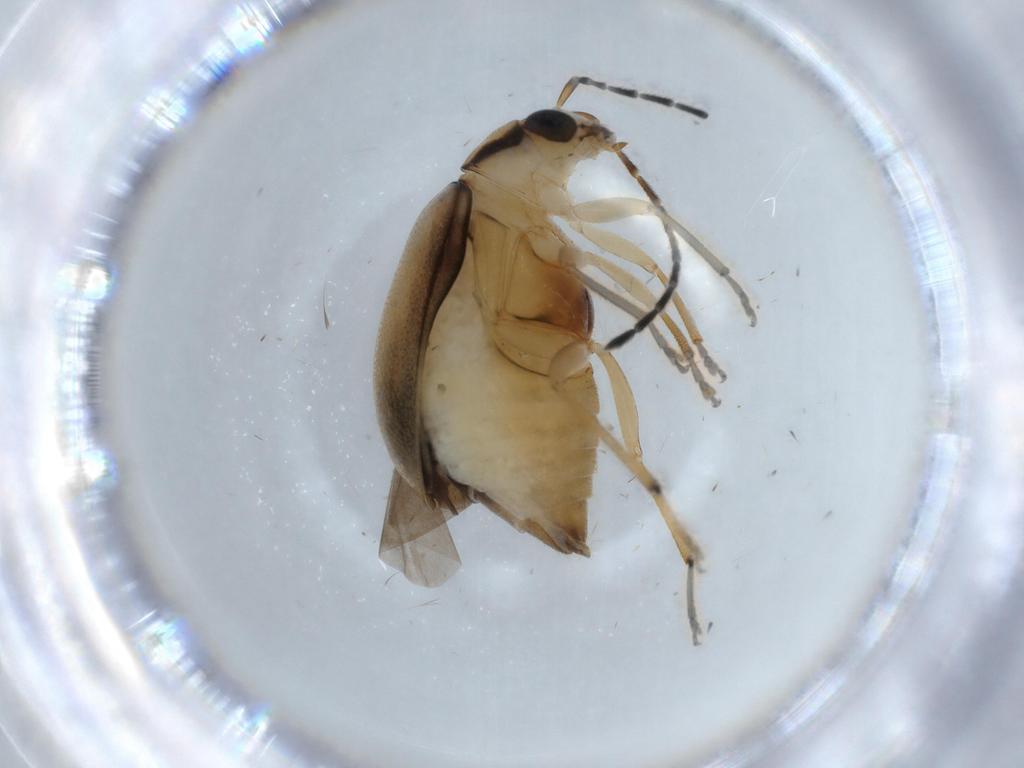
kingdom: Animalia
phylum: Arthropoda
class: Insecta
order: Coleoptera
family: Chrysomelidae
